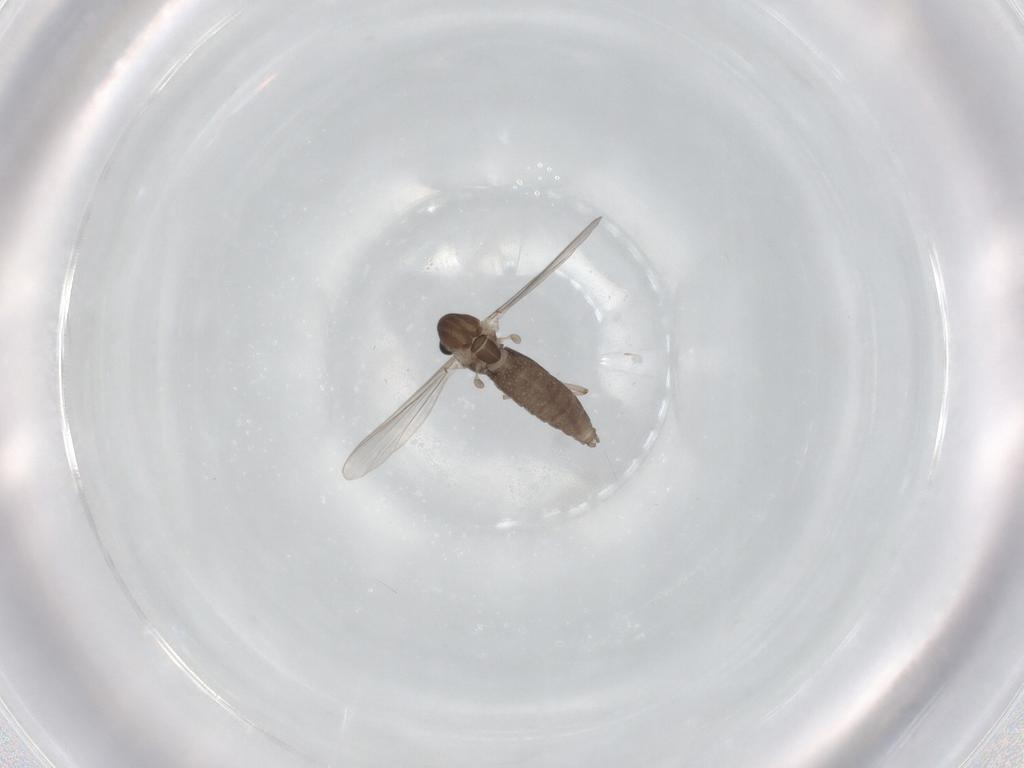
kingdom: Animalia
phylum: Arthropoda
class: Insecta
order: Diptera
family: Chironomidae
